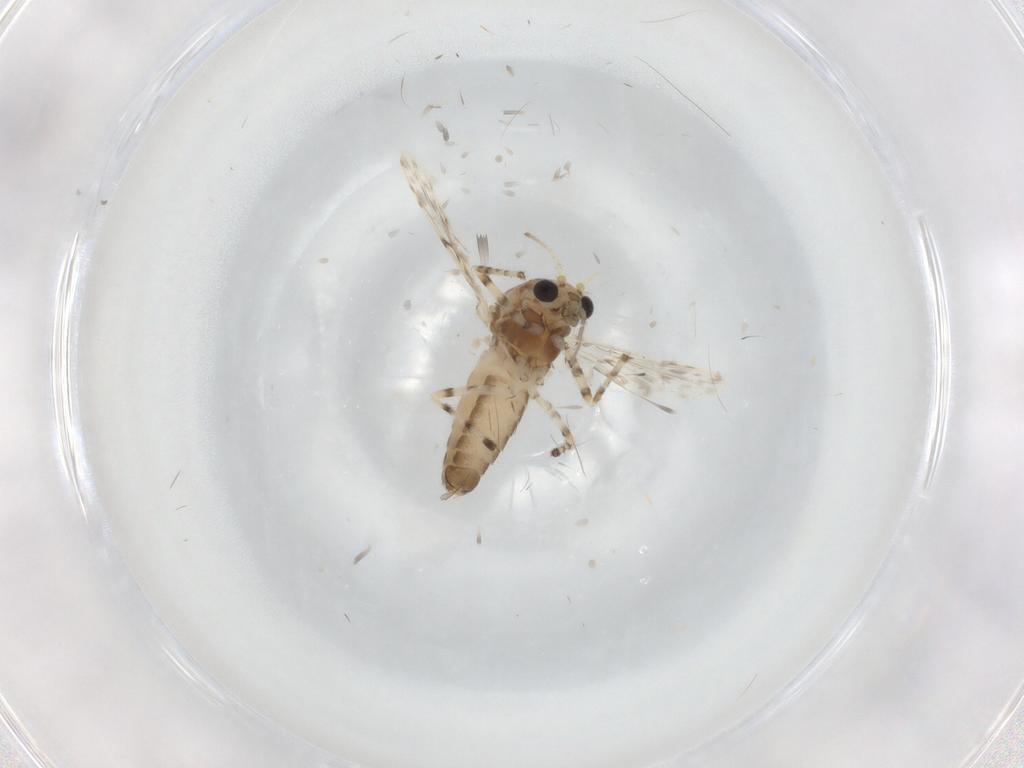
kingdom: Animalia
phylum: Arthropoda
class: Insecta
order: Diptera
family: Chironomidae
